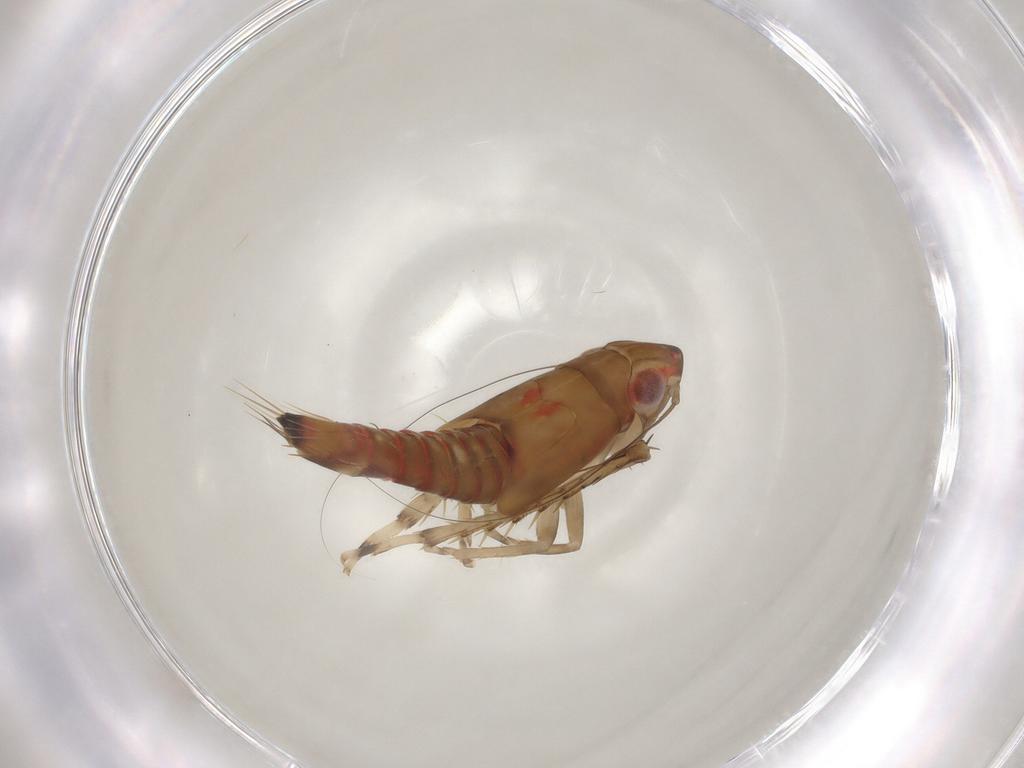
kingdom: Animalia
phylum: Arthropoda
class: Insecta
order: Hemiptera
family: Cicadellidae
